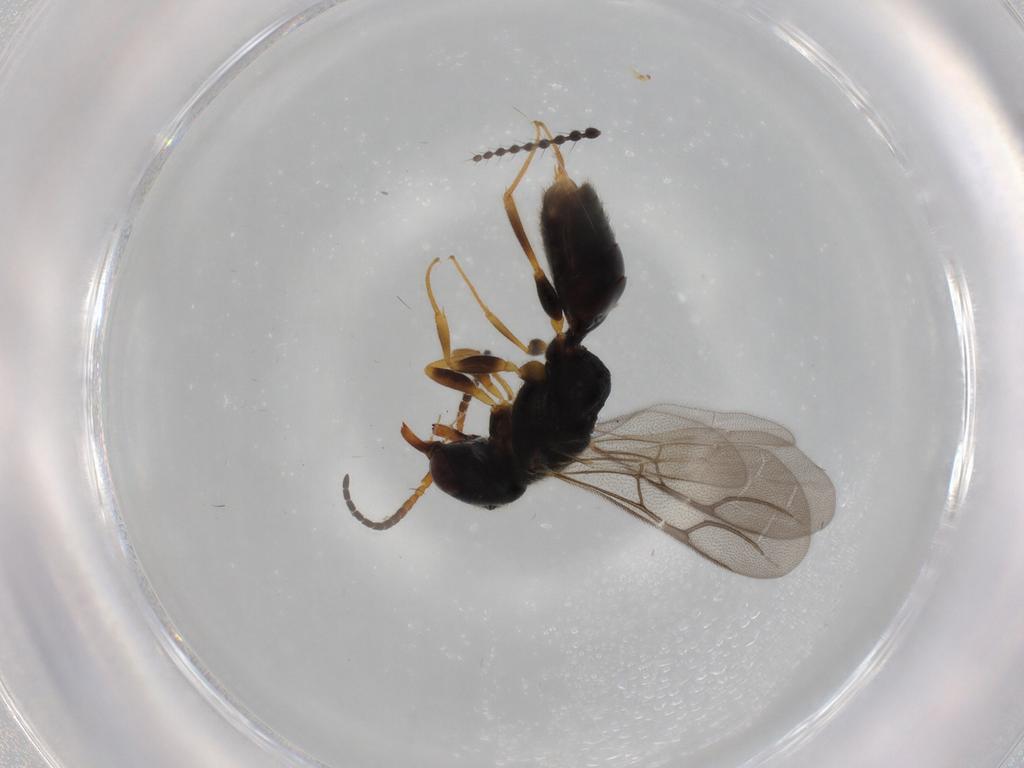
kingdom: Animalia
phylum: Arthropoda
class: Insecta
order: Hymenoptera
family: Bethylidae
